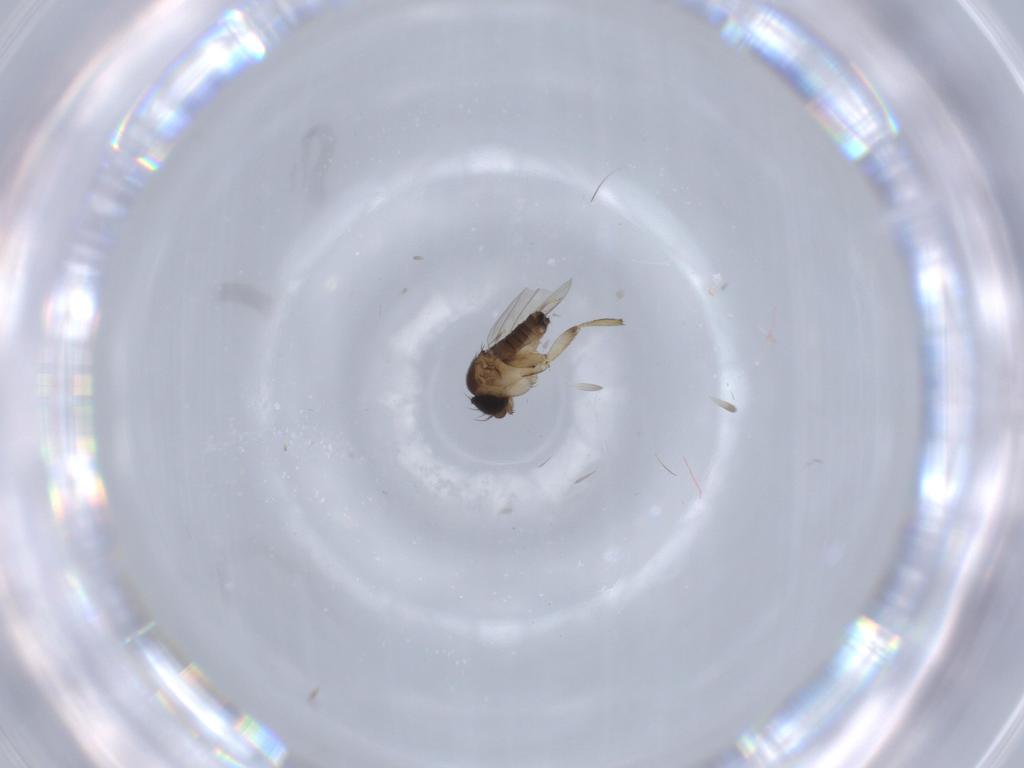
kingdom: Animalia
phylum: Arthropoda
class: Insecta
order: Diptera
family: Phoridae
